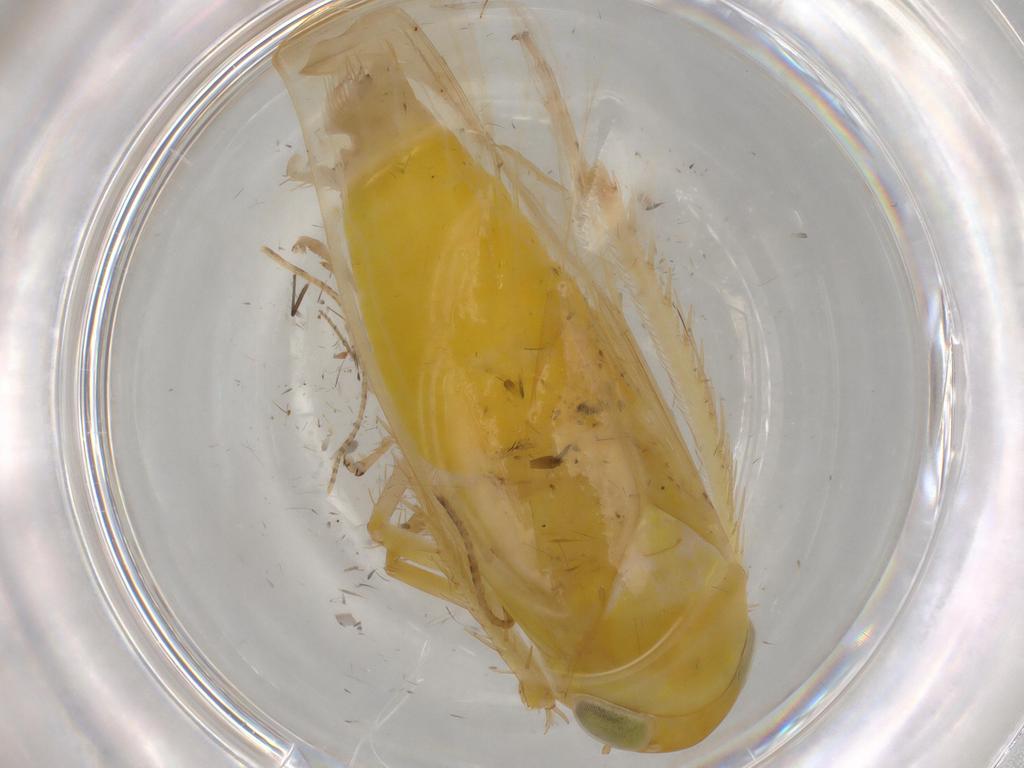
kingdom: Animalia
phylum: Arthropoda
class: Insecta
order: Hemiptera
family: Cicadellidae
